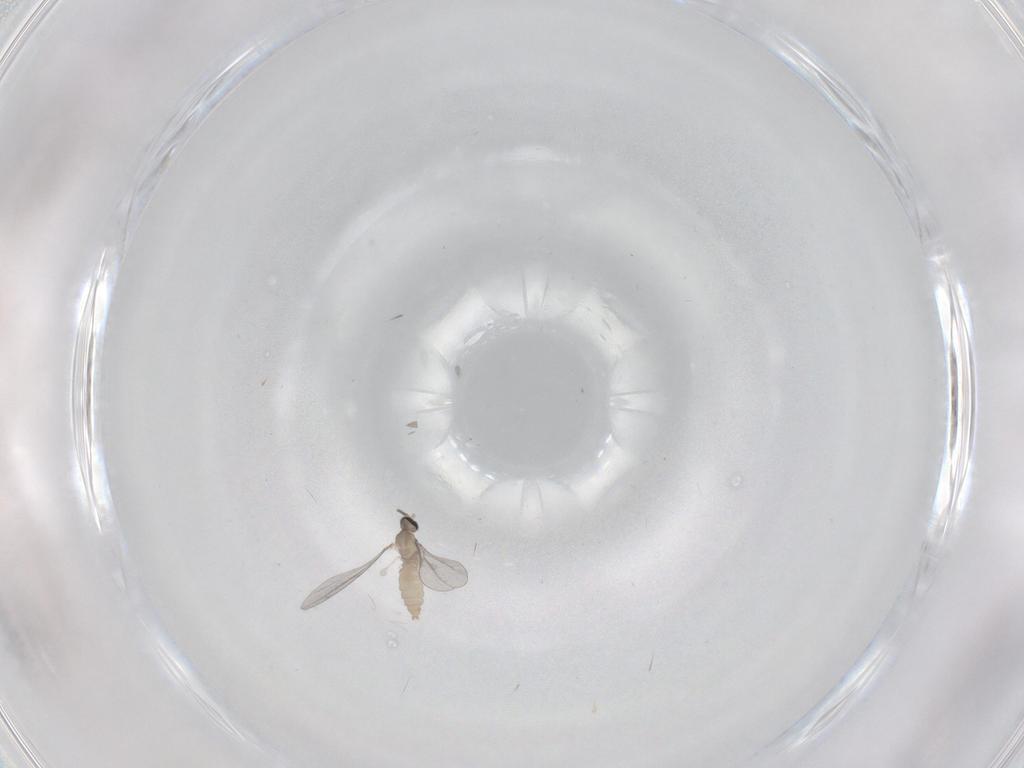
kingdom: Animalia
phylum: Arthropoda
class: Insecta
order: Diptera
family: Cecidomyiidae
